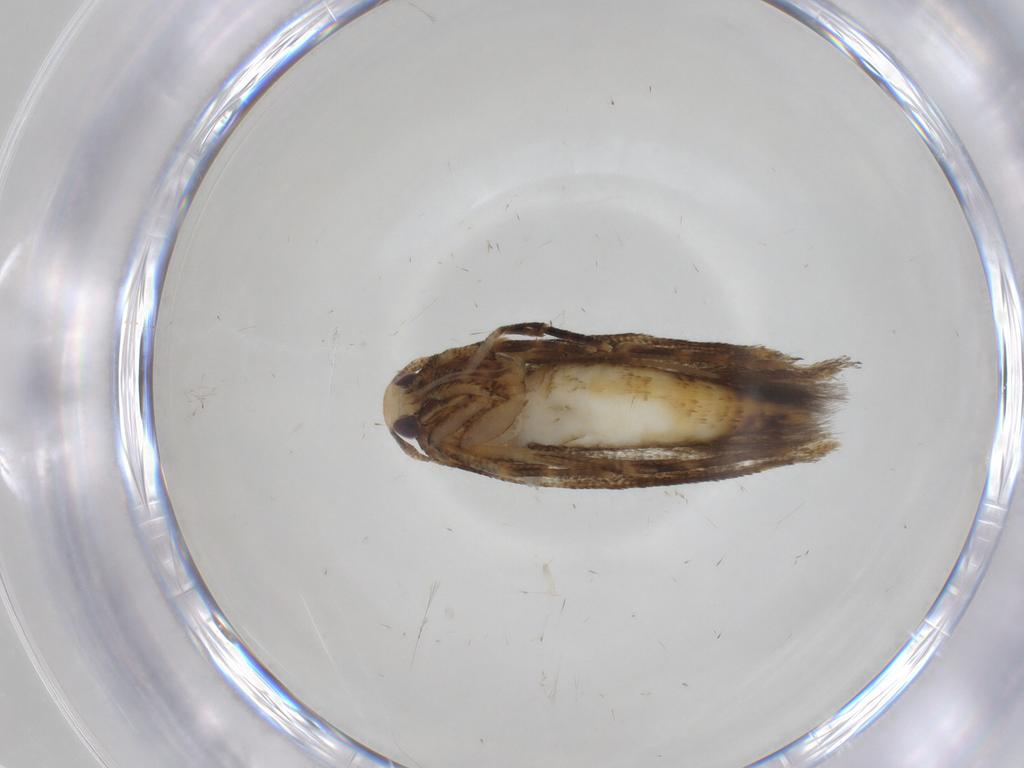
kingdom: Animalia
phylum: Arthropoda
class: Insecta
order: Lepidoptera
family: Cosmopterigidae
